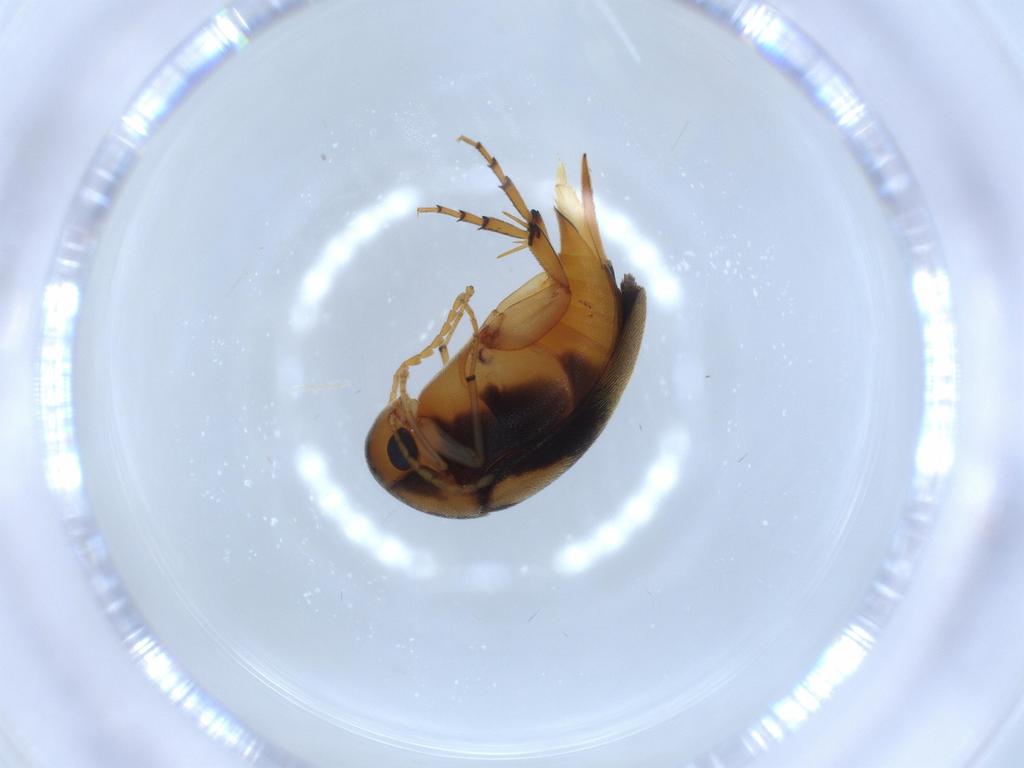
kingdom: Animalia
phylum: Arthropoda
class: Insecta
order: Coleoptera
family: Mordellidae
